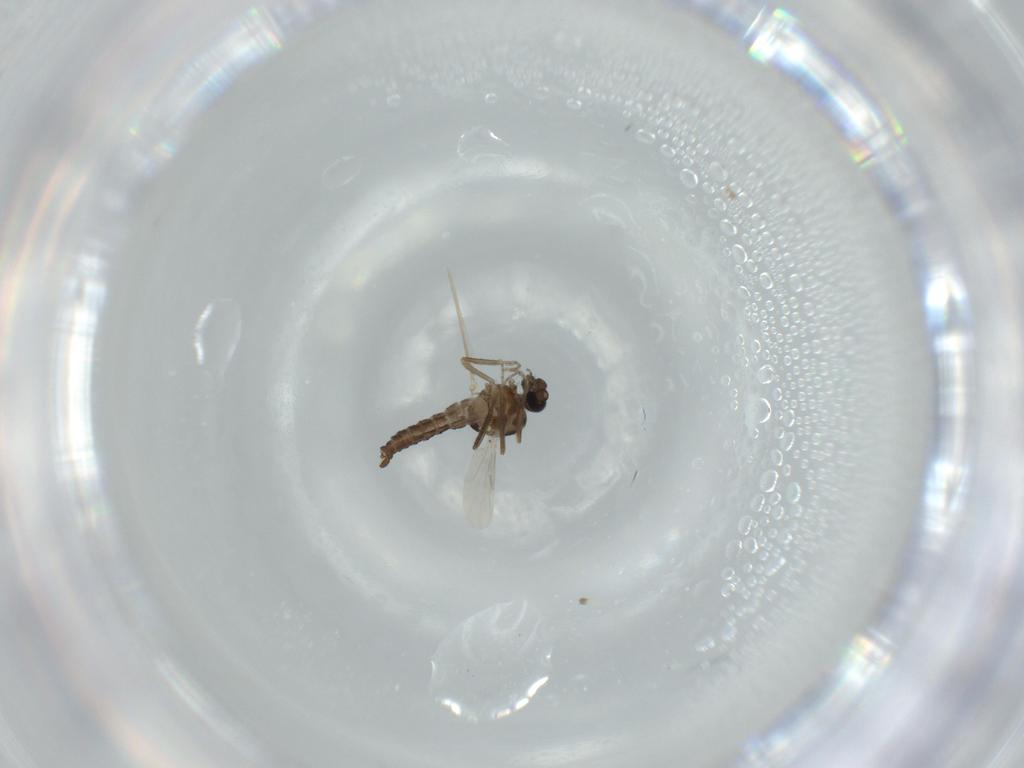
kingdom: Animalia
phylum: Arthropoda
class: Insecta
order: Diptera
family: Ceratopogonidae
